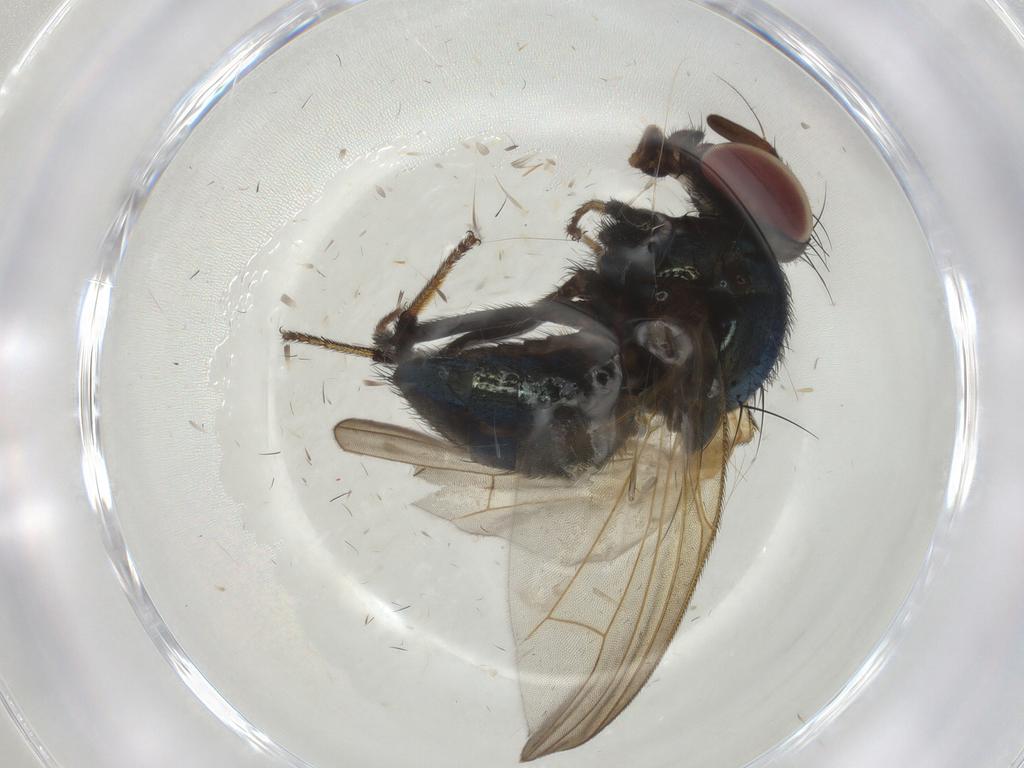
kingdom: Animalia
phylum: Arthropoda
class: Insecta
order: Diptera
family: Lonchaeidae
